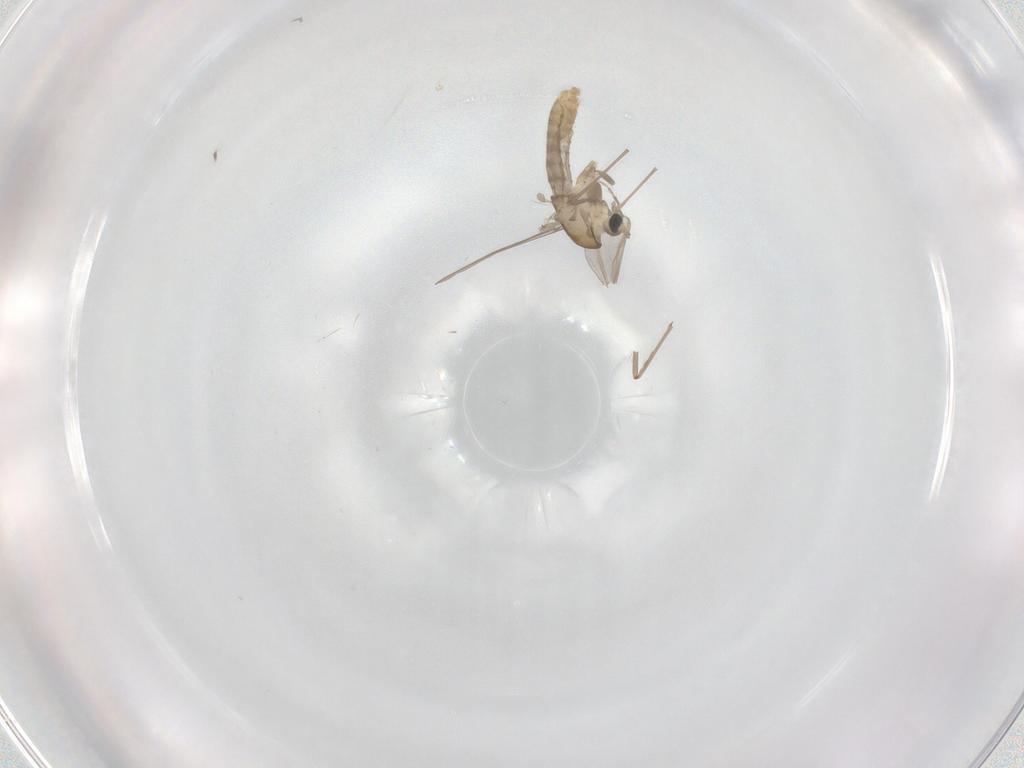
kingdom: Animalia
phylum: Arthropoda
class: Insecta
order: Diptera
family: Chironomidae
